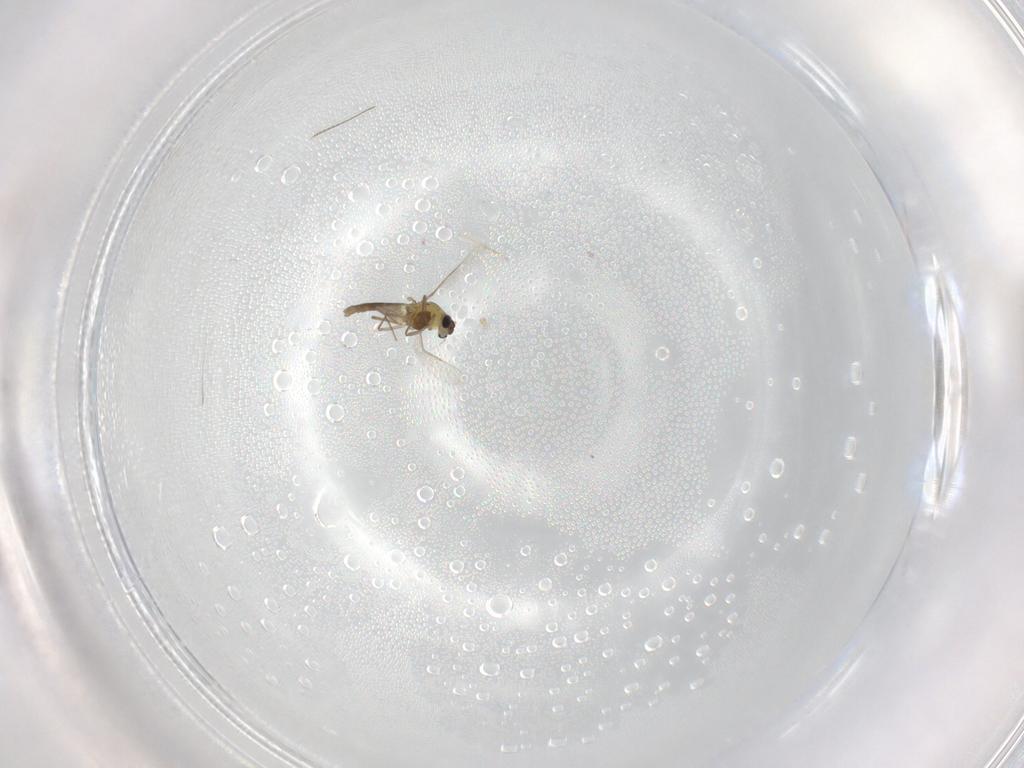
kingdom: Animalia
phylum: Arthropoda
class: Insecta
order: Diptera
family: Chironomidae
